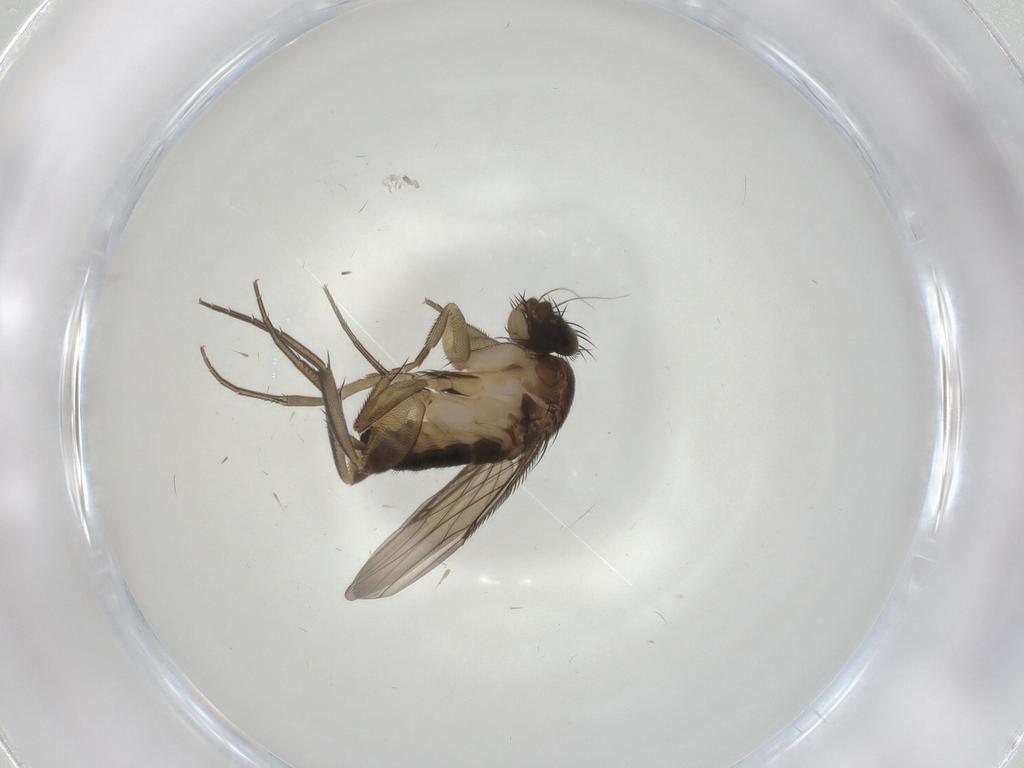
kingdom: Animalia
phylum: Arthropoda
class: Insecta
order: Diptera
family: Phoridae
